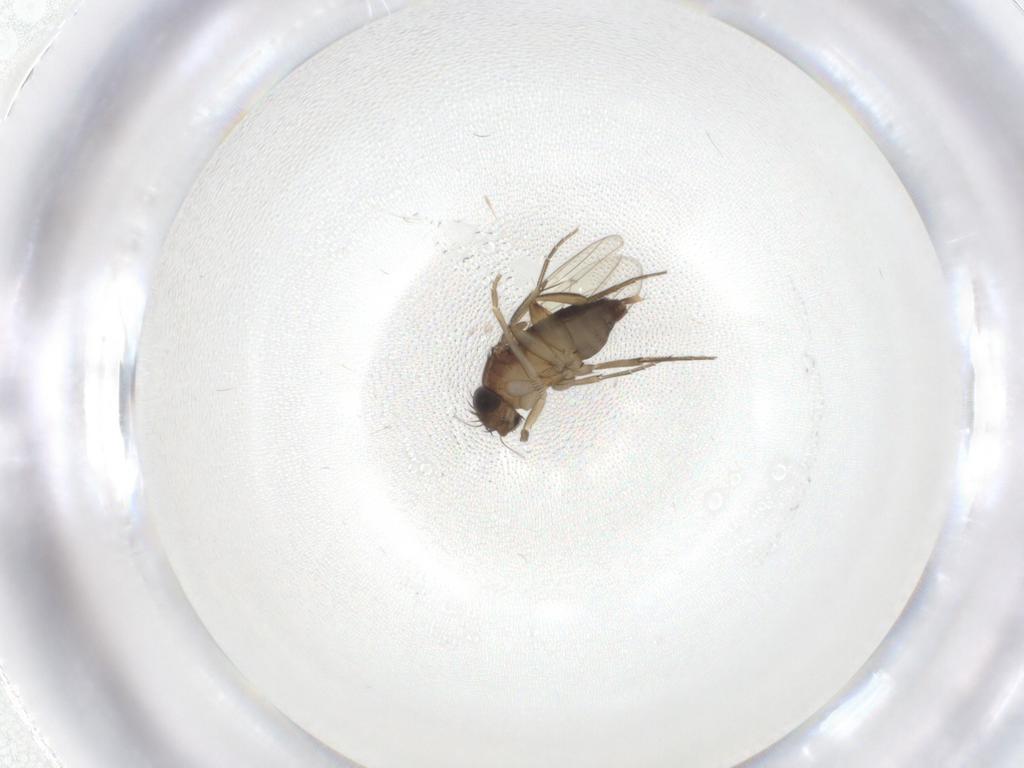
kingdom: Animalia
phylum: Arthropoda
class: Insecta
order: Diptera
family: Phoridae
